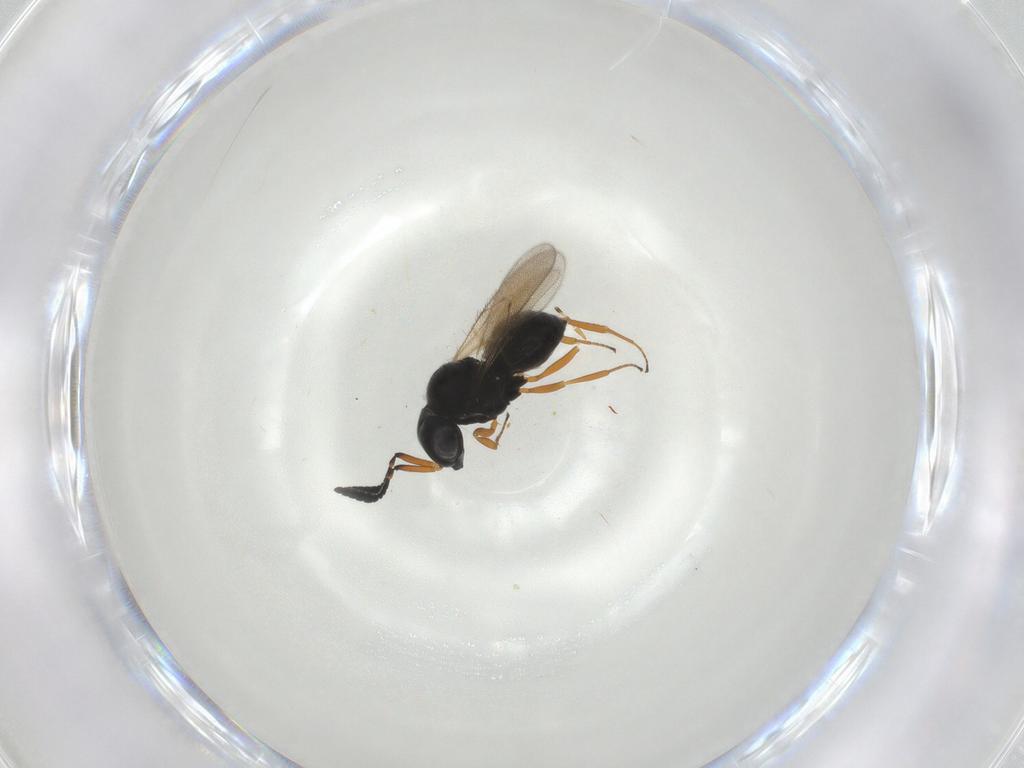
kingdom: Animalia
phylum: Arthropoda
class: Insecta
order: Hymenoptera
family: Scelionidae
